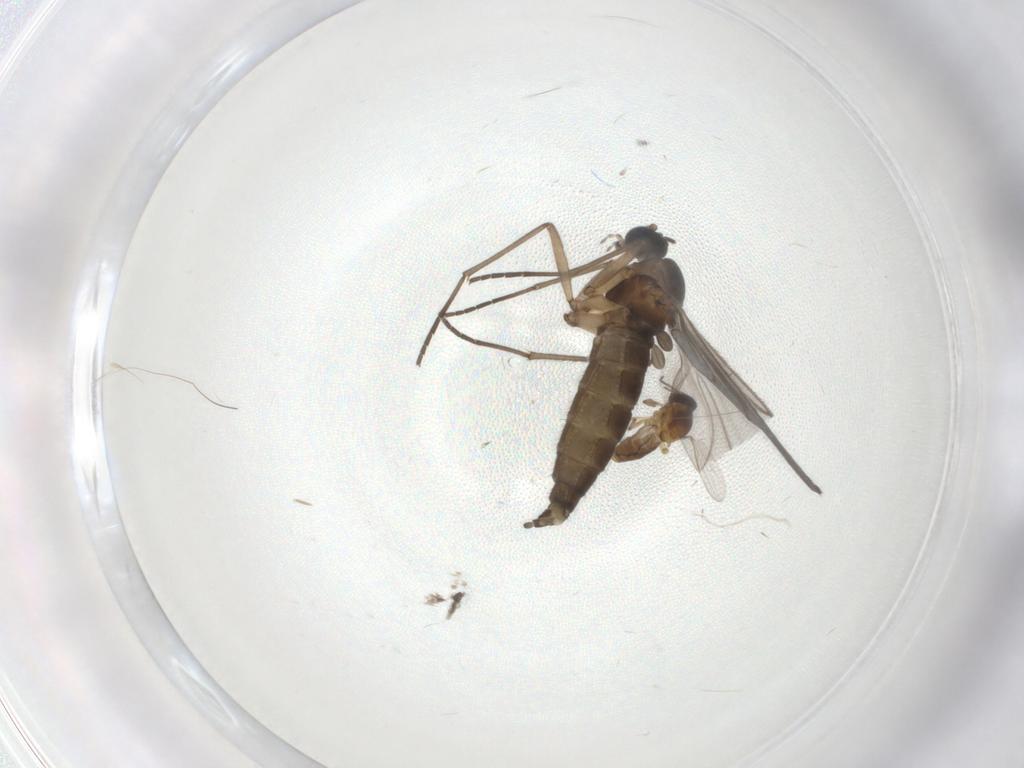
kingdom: Animalia
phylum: Arthropoda
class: Insecta
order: Diptera
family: Ceratopogonidae
